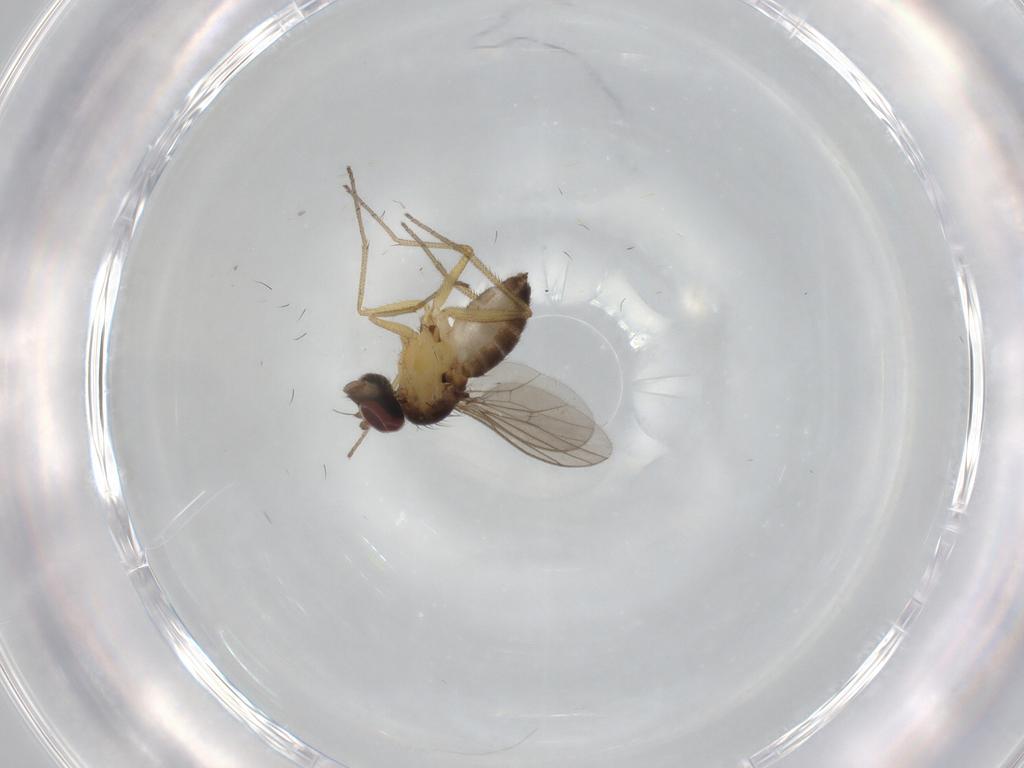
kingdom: Animalia
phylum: Arthropoda
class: Insecta
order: Diptera
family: Dolichopodidae
